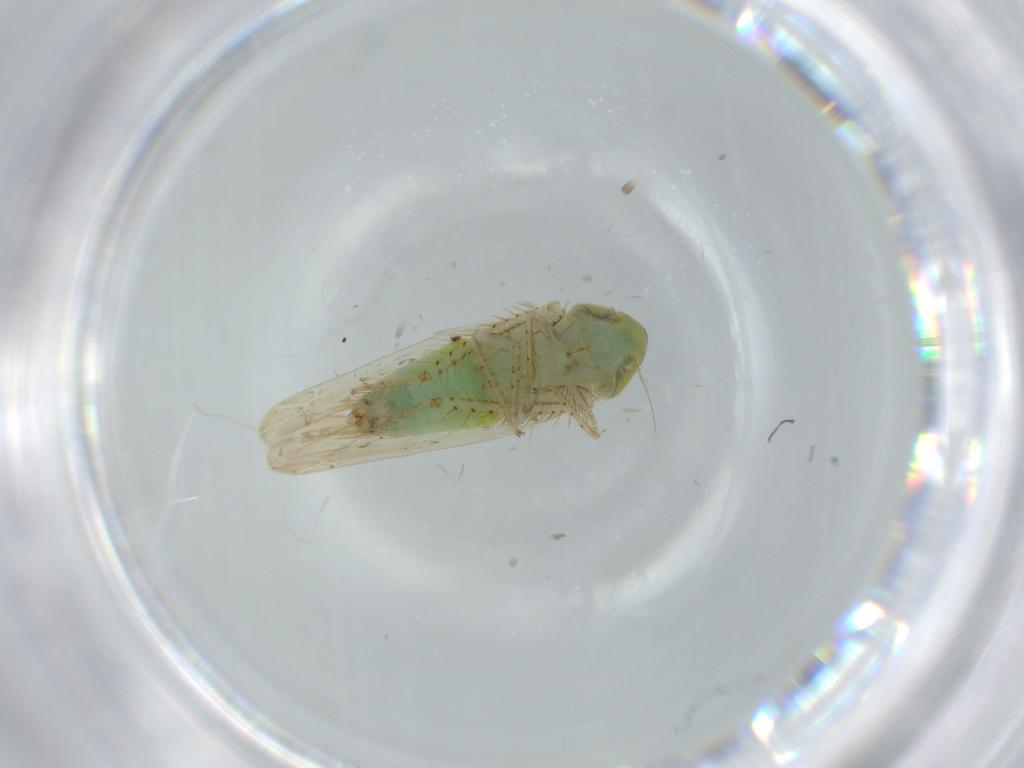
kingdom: Animalia
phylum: Arthropoda
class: Insecta
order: Hemiptera
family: Cicadellidae
